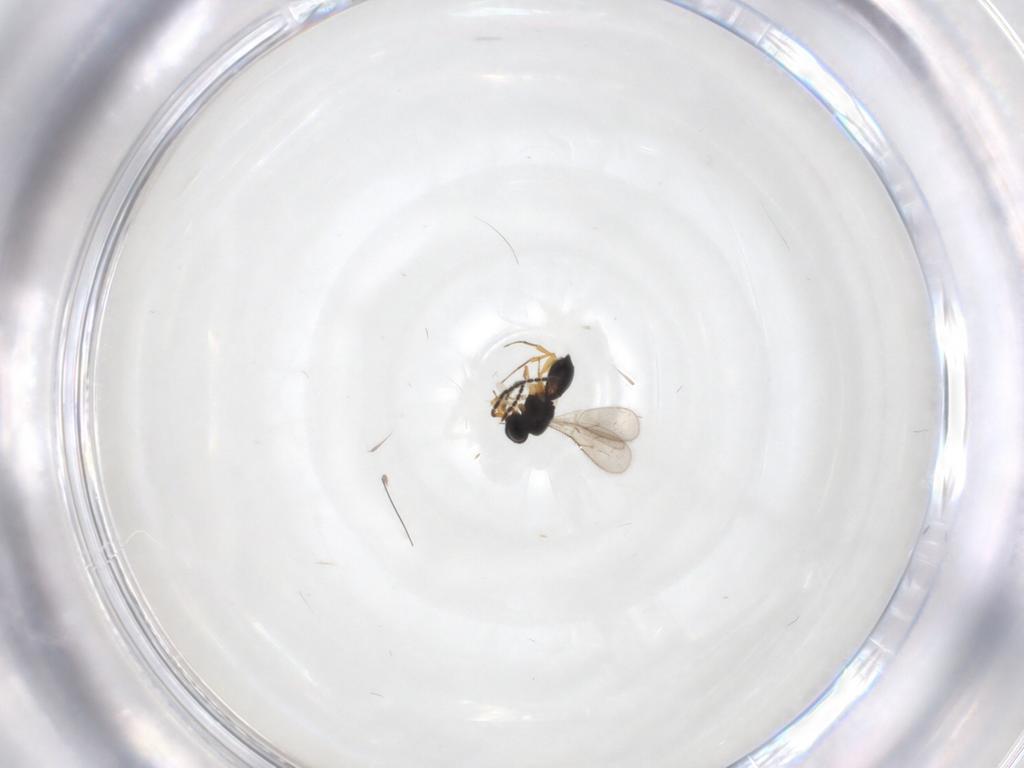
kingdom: Animalia
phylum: Arthropoda
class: Insecta
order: Hymenoptera
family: Scelionidae
